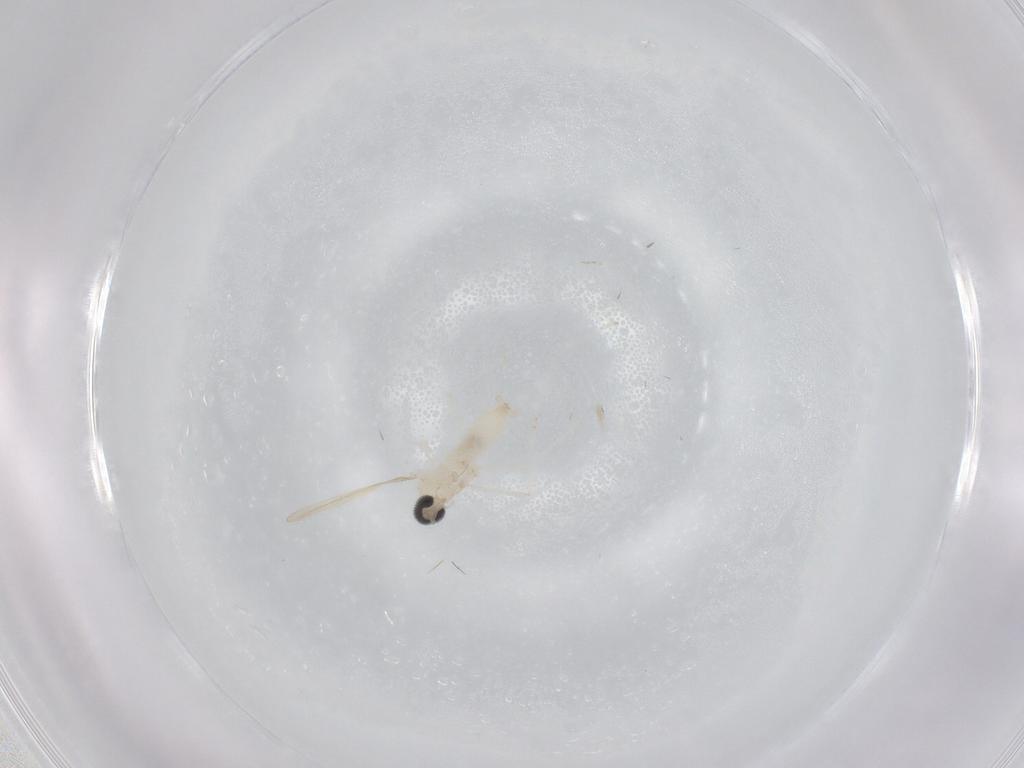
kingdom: Animalia
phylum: Arthropoda
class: Insecta
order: Diptera
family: Cecidomyiidae
